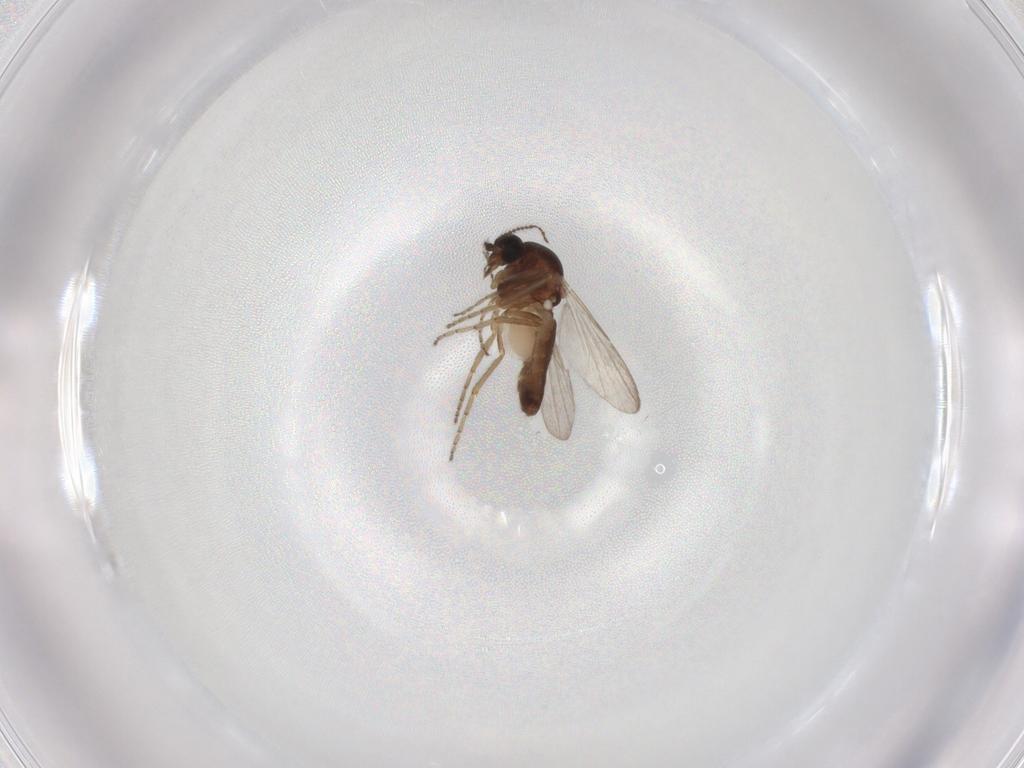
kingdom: Animalia
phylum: Arthropoda
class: Insecta
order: Diptera
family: Ceratopogonidae
